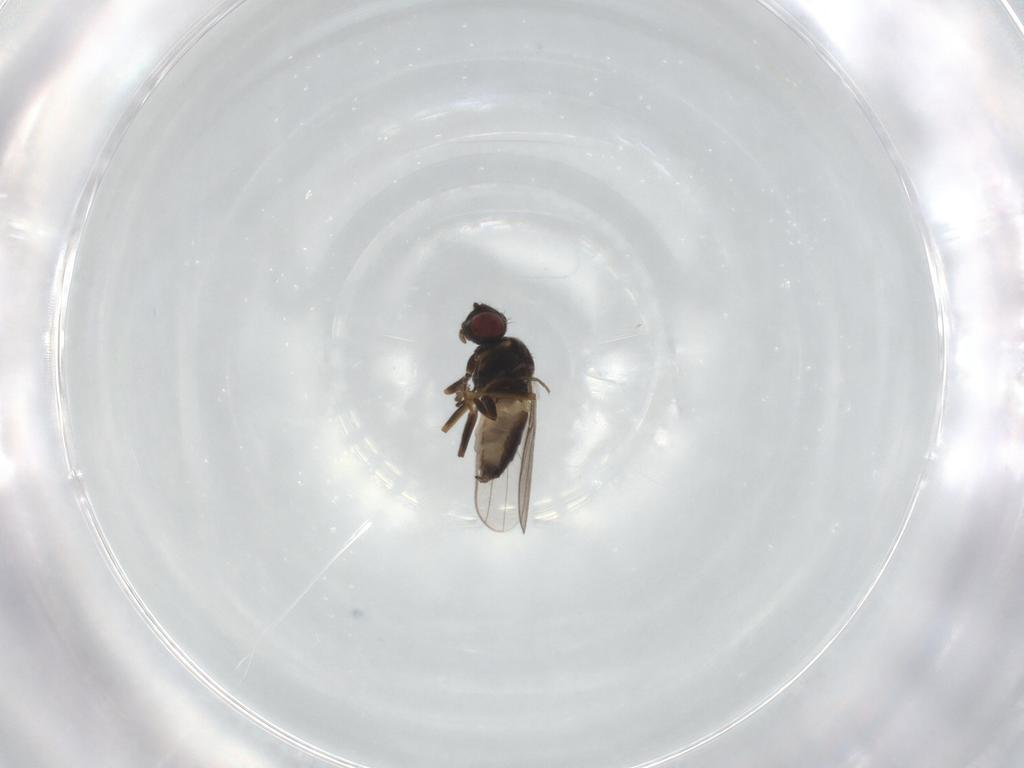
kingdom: Animalia
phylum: Arthropoda
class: Insecta
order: Diptera
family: Chloropidae
